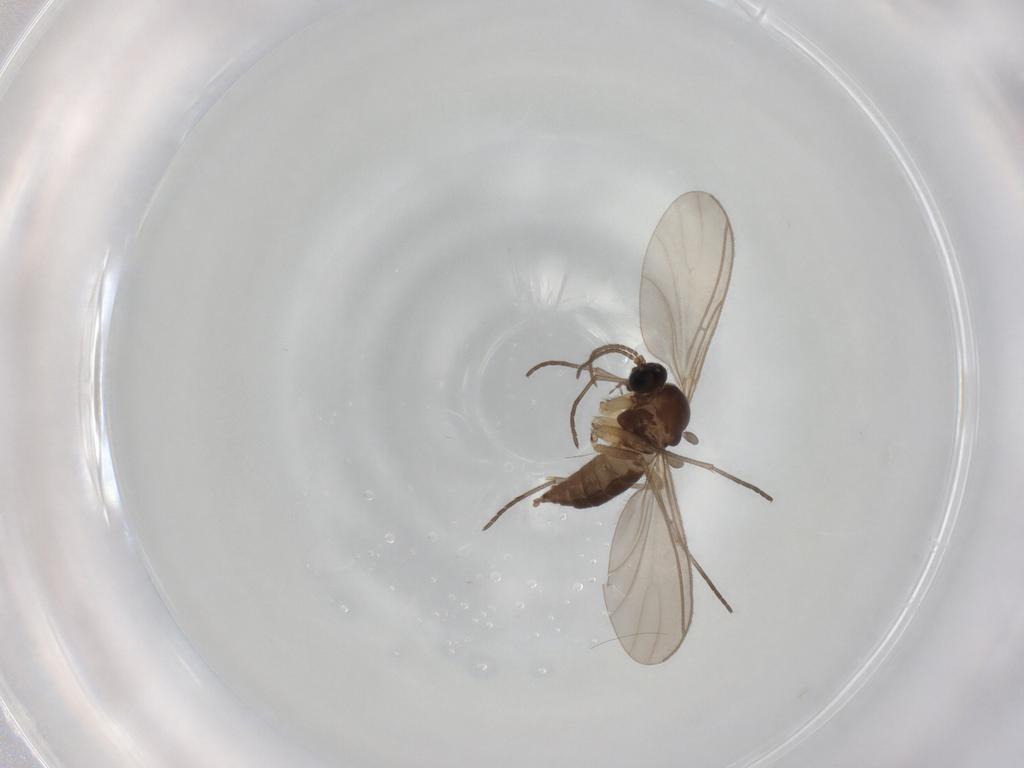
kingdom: Animalia
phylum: Arthropoda
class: Insecta
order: Diptera
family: Sciaridae
